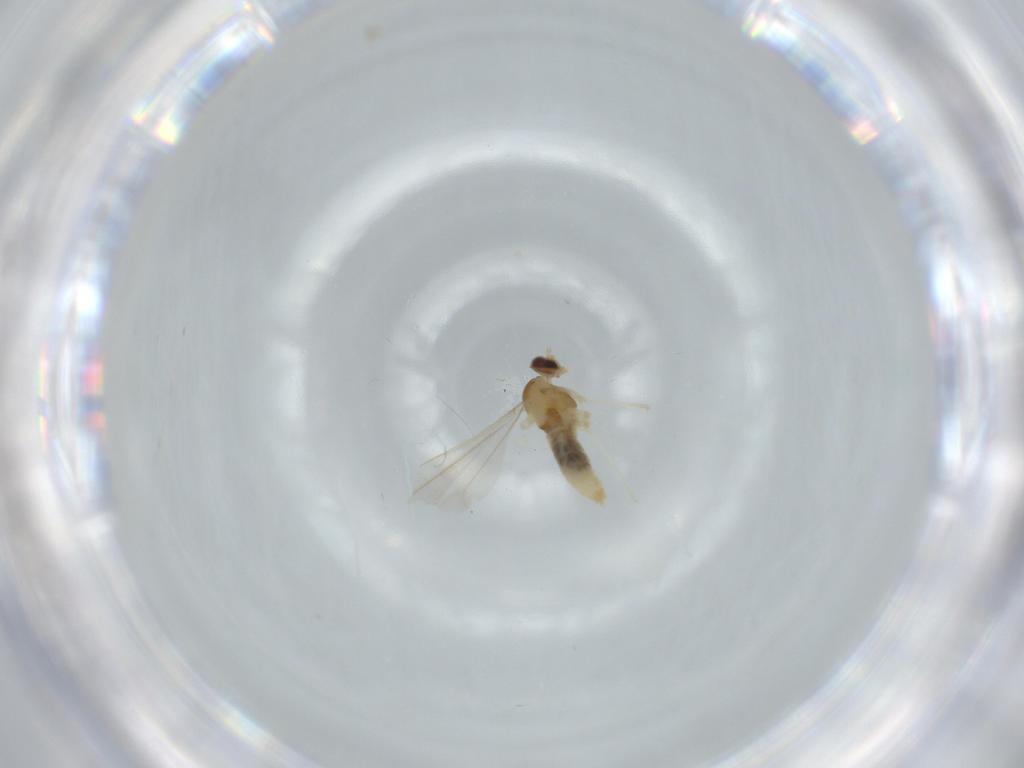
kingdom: Animalia
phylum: Arthropoda
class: Insecta
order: Diptera
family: Cecidomyiidae
